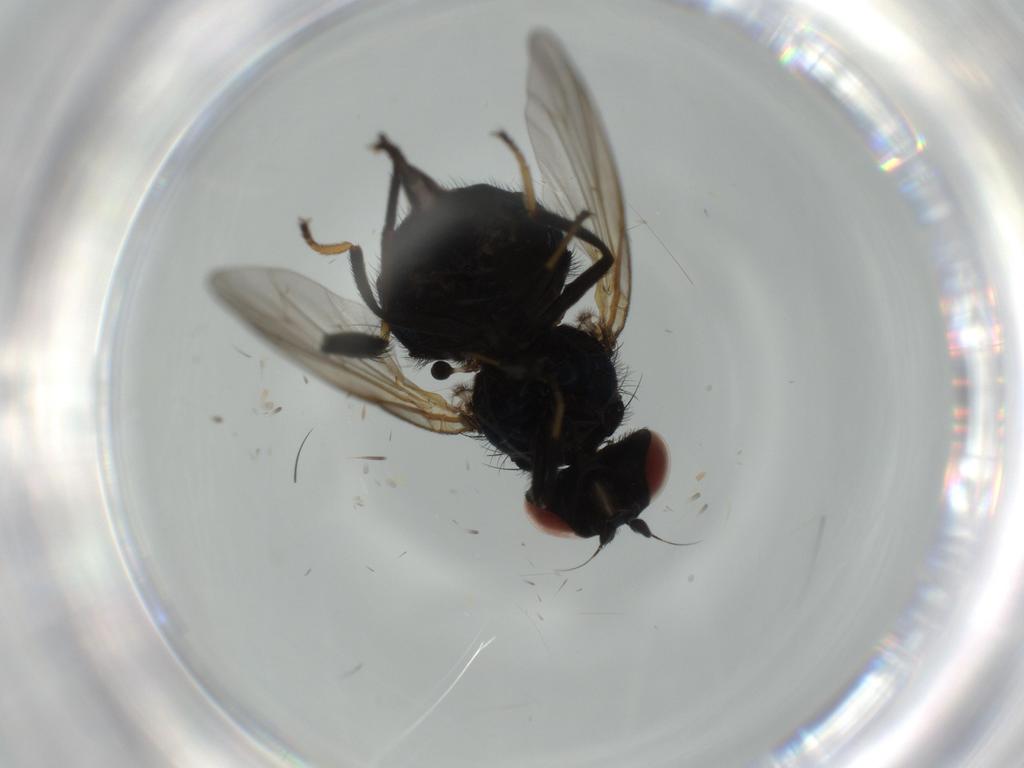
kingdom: Animalia
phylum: Arthropoda
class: Insecta
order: Diptera
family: Lonchaeidae
